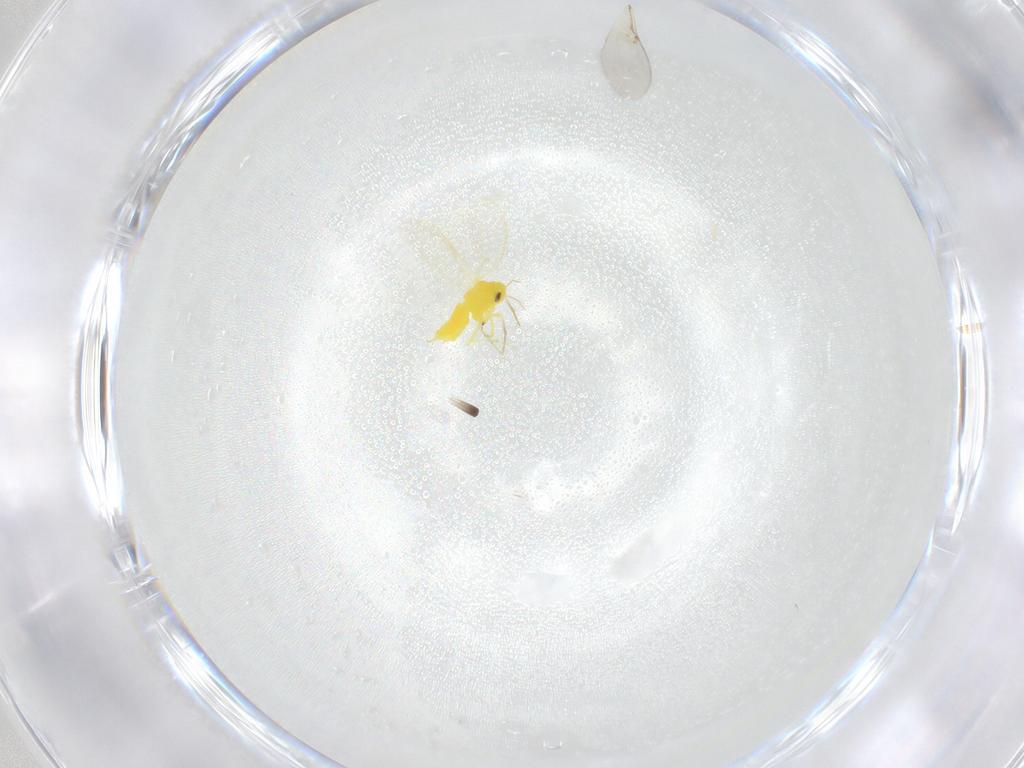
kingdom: Animalia
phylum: Arthropoda
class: Insecta
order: Hemiptera
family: Aleyrodidae
